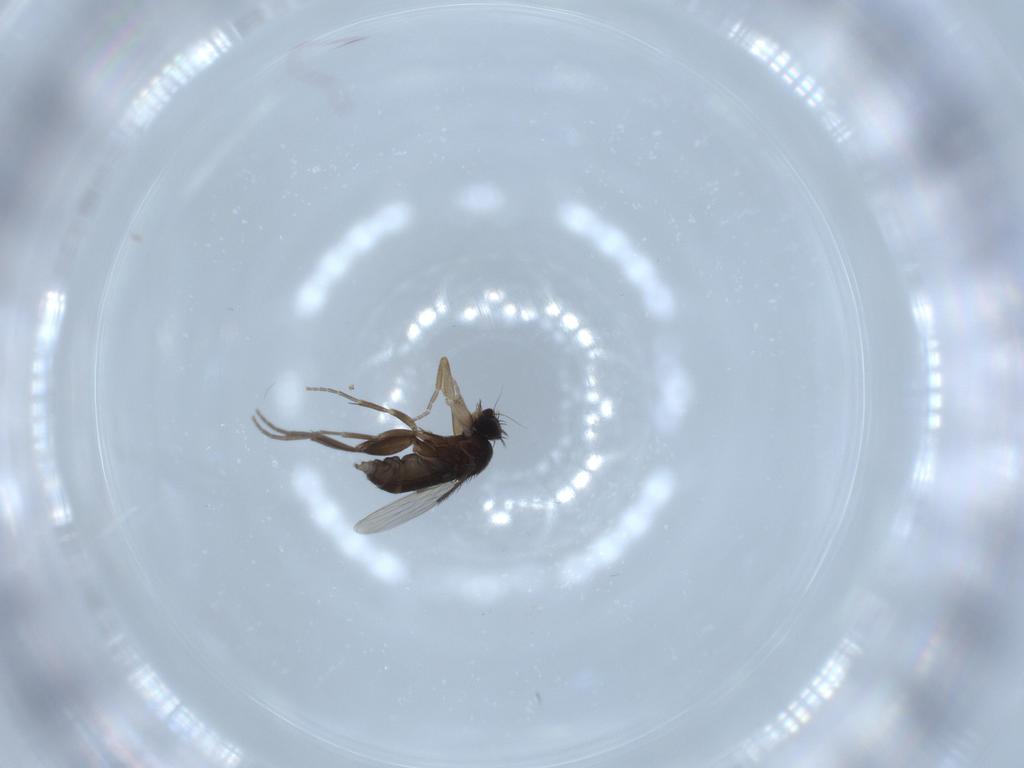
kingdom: Animalia
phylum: Arthropoda
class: Insecta
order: Diptera
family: Phoridae
